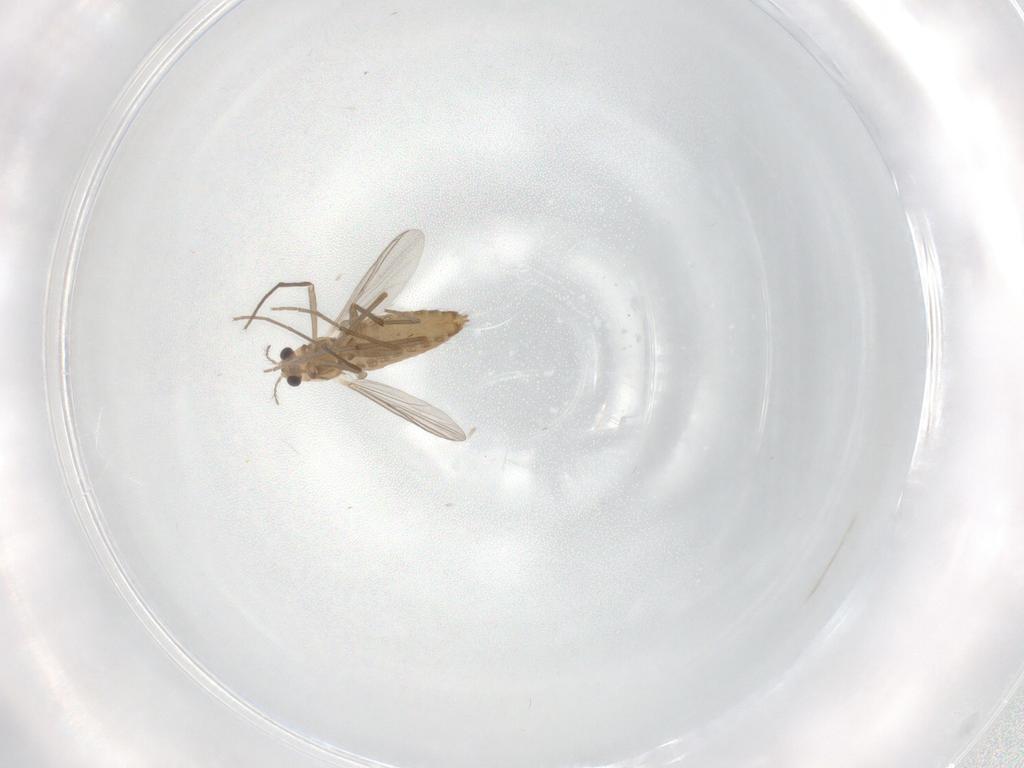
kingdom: Animalia
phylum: Arthropoda
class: Insecta
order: Diptera
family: Chironomidae
